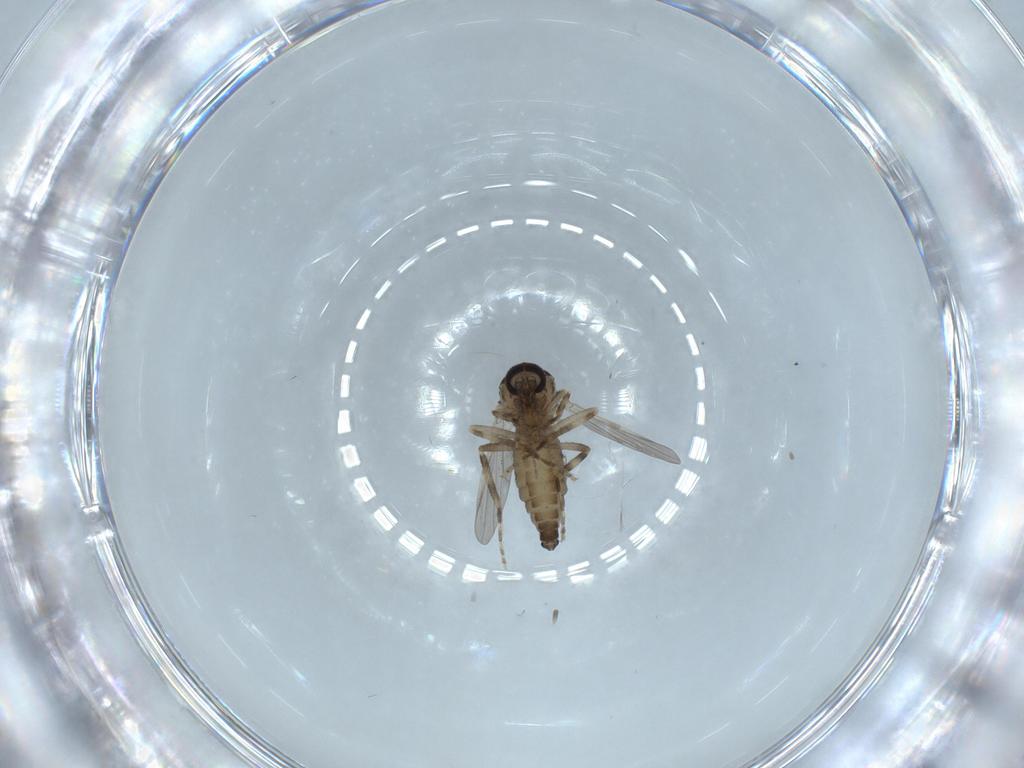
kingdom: Animalia
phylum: Arthropoda
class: Insecta
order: Diptera
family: Ceratopogonidae
